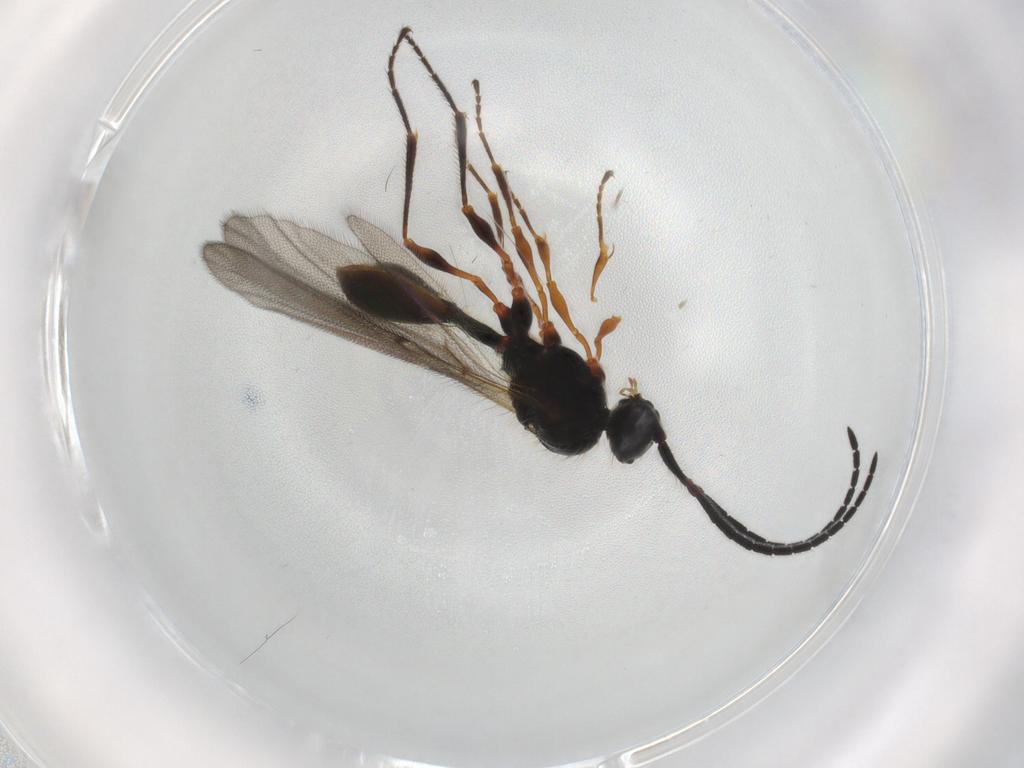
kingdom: Animalia
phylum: Arthropoda
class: Insecta
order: Hymenoptera
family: Diapriidae
